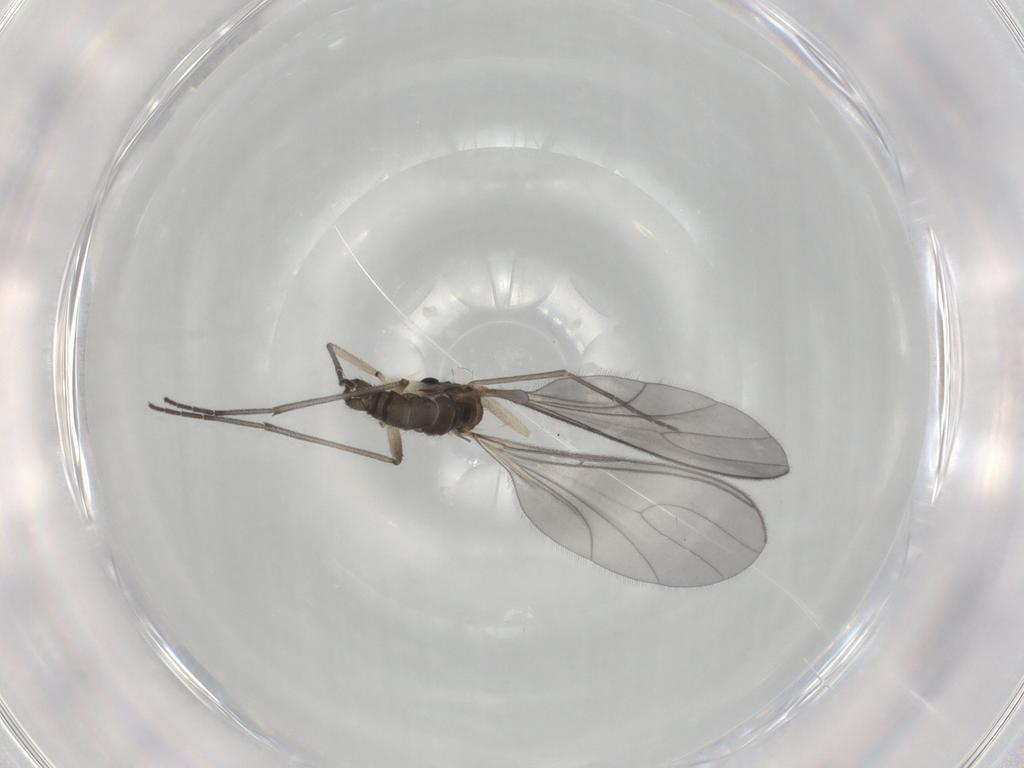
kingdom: Animalia
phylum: Arthropoda
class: Insecta
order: Diptera
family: Sciaridae
